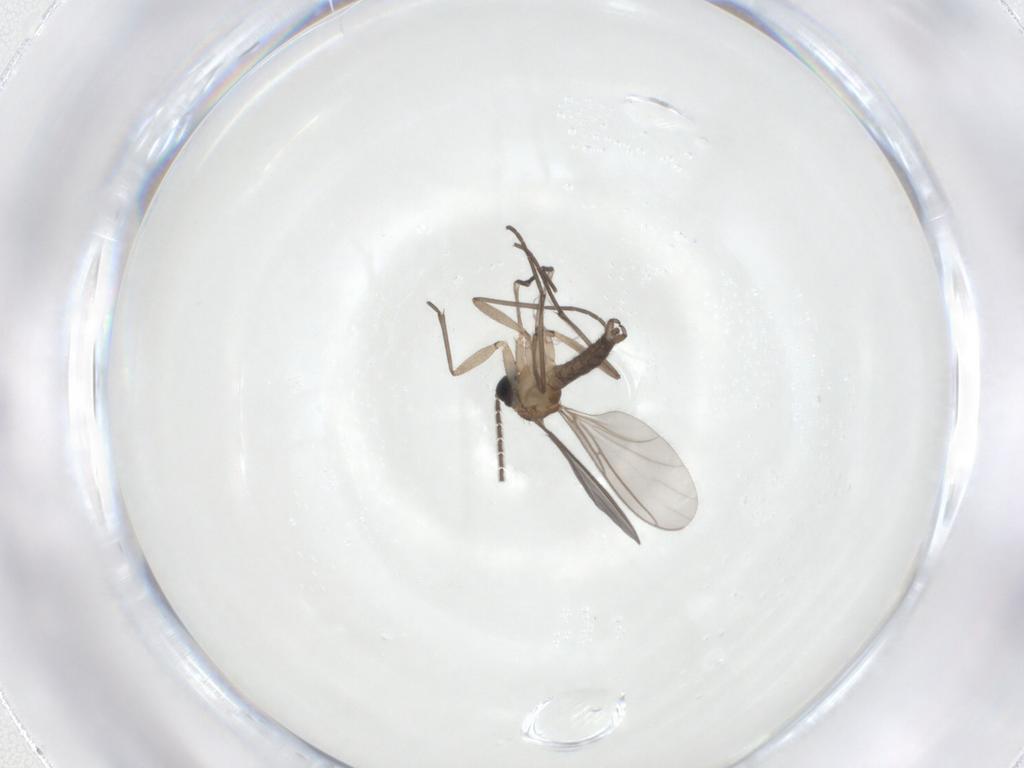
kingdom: Animalia
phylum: Arthropoda
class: Insecta
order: Diptera
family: Sciaridae
